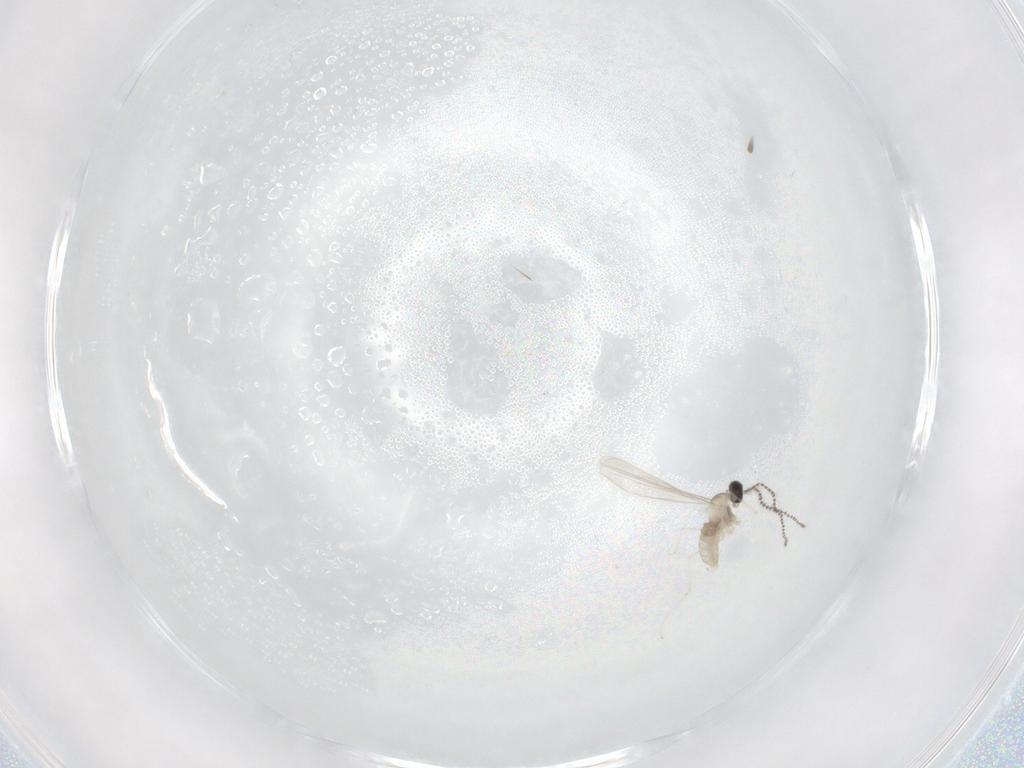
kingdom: Animalia
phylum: Arthropoda
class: Insecta
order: Diptera
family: Cecidomyiidae
